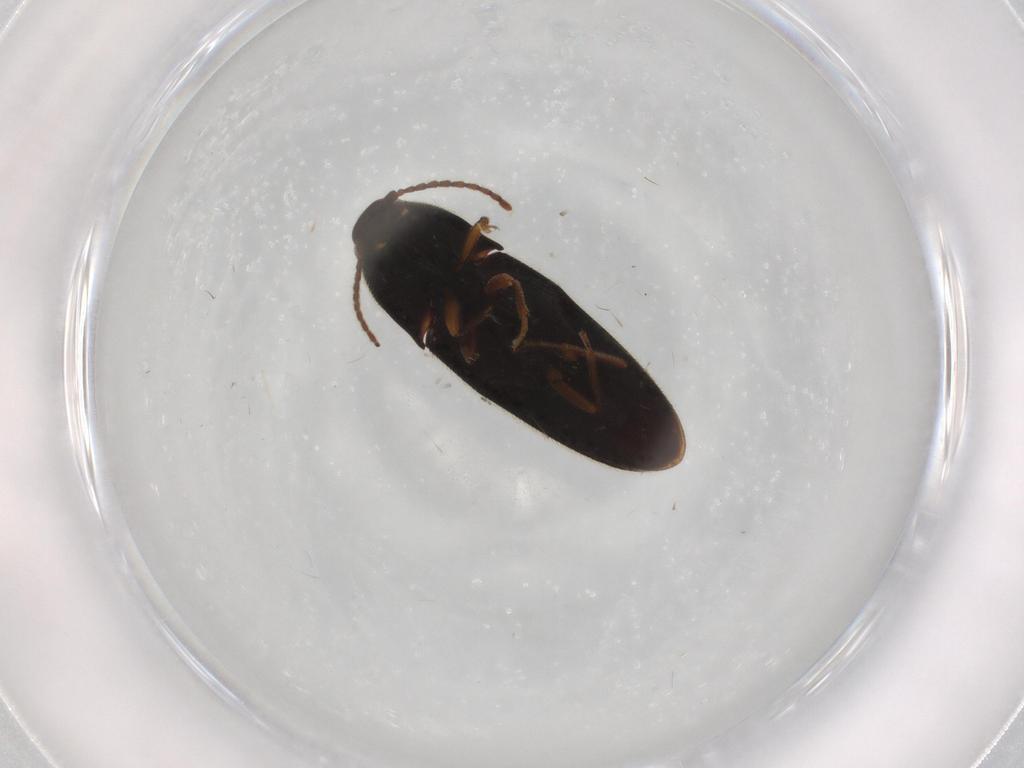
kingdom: Animalia
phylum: Arthropoda
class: Insecta
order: Coleoptera
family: Elateridae
